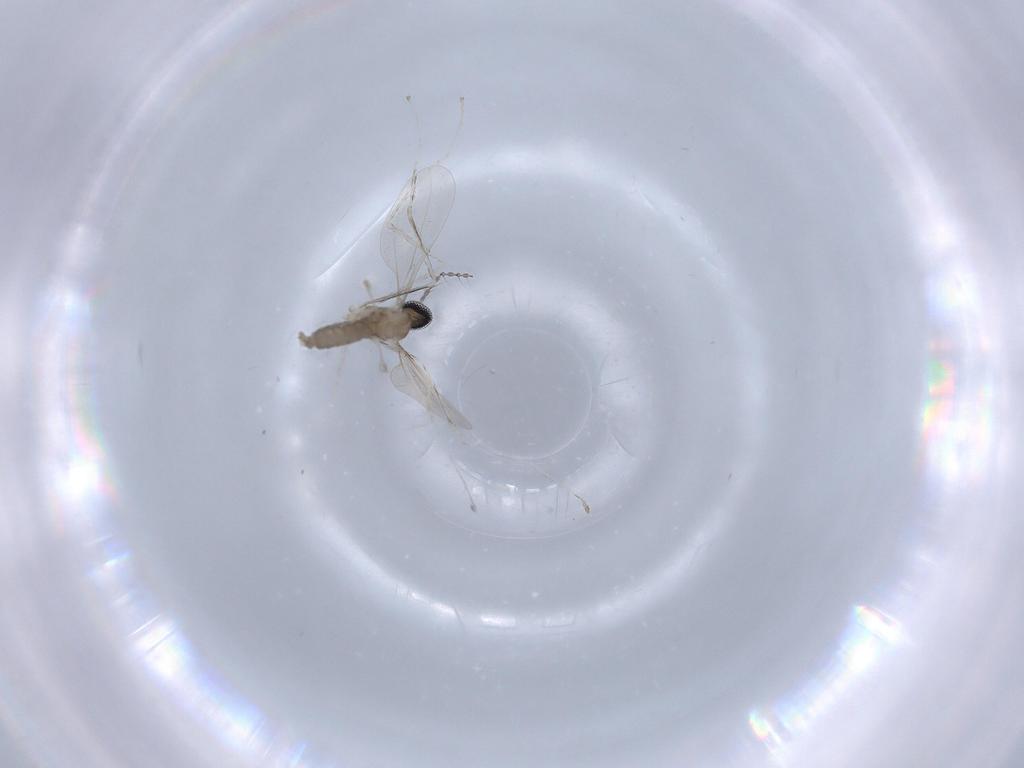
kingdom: Animalia
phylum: Arthropoda
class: Insecta
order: Diptera
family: Cecidomyiidae
